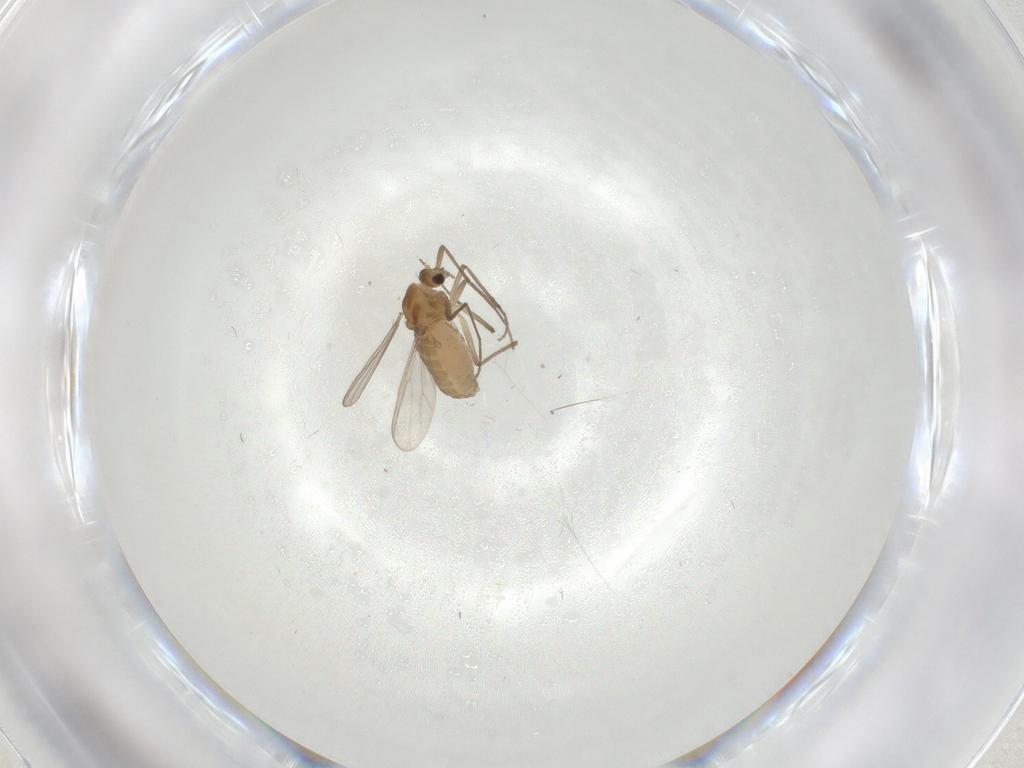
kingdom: Animalia
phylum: Arthropoda
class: Insecta
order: Diptera
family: Chironomidae
